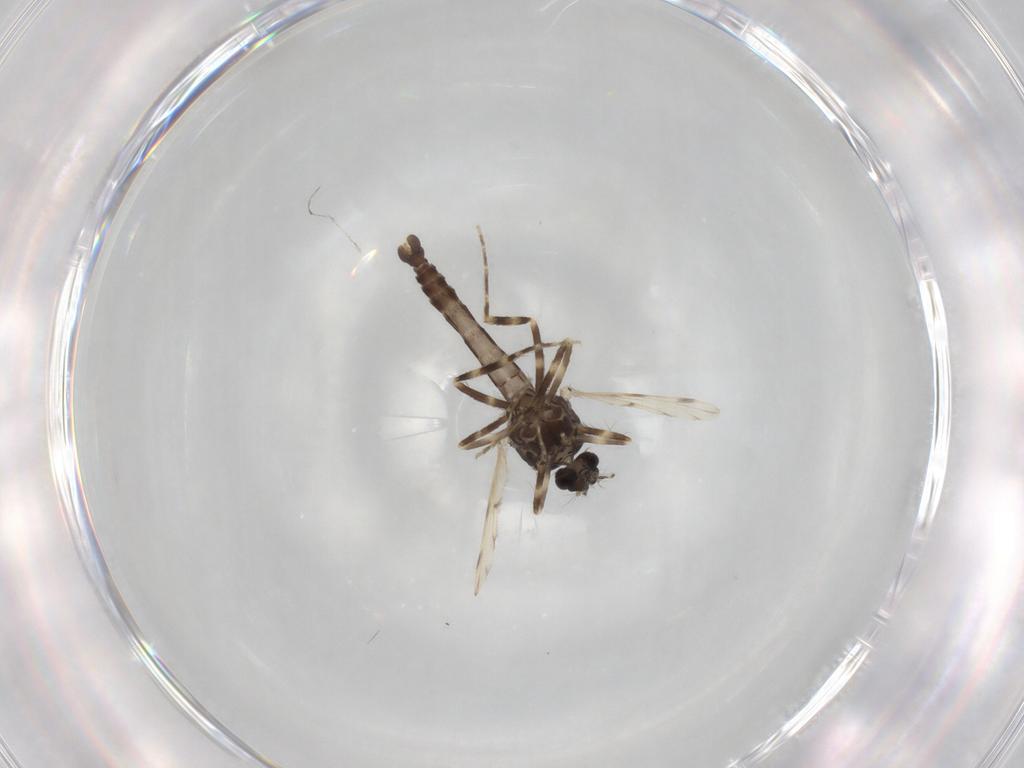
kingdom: Animalia
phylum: Arthropoda
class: Insecta
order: Diptera
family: Ceratopogonidae
